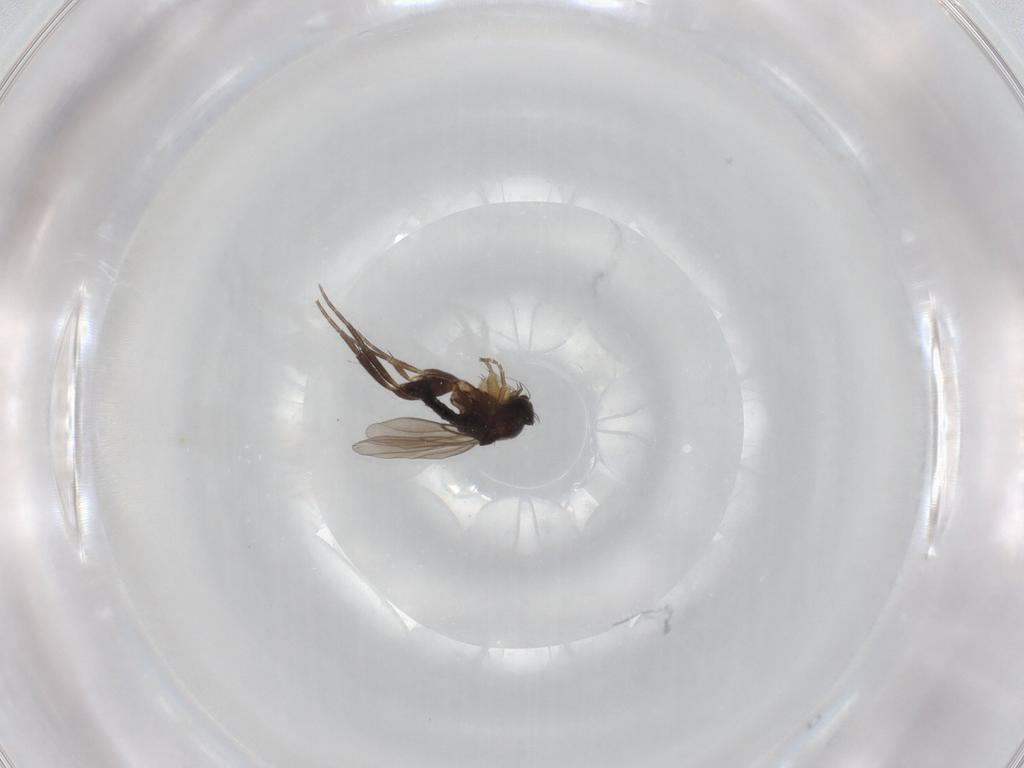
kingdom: Animalia
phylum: Arthropoda
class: Insecta
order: Diptera
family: Phoridae
